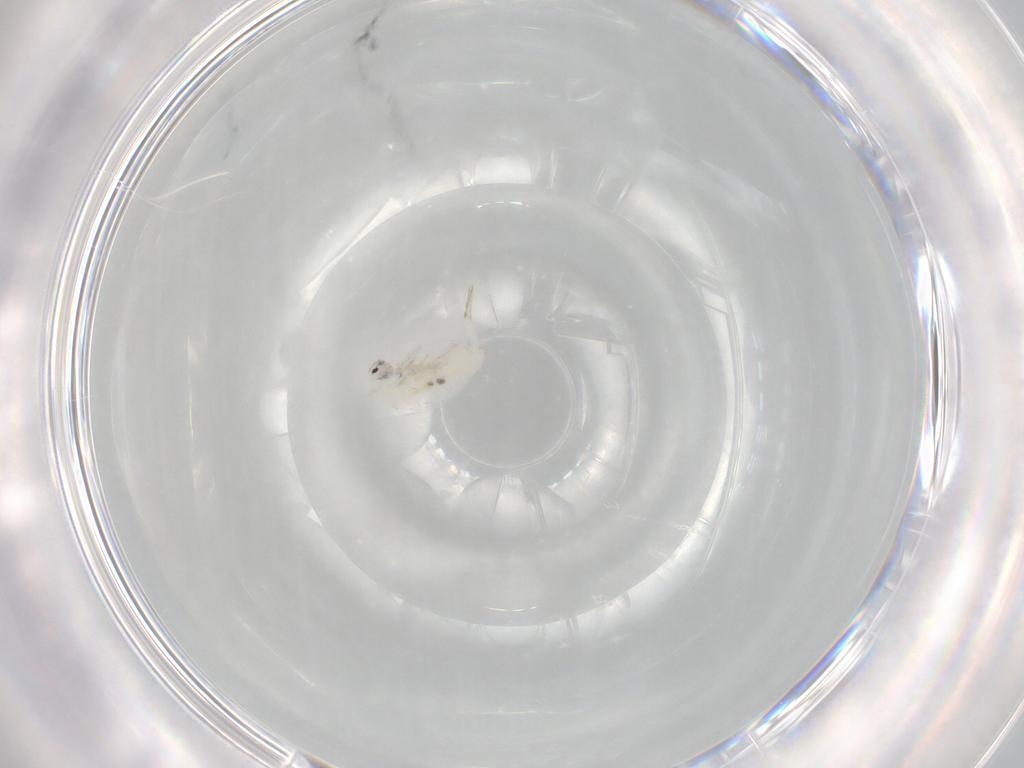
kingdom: Animalia
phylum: Arthropoda
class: Collembola
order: Entomobryomorpha
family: Entomobryidae
